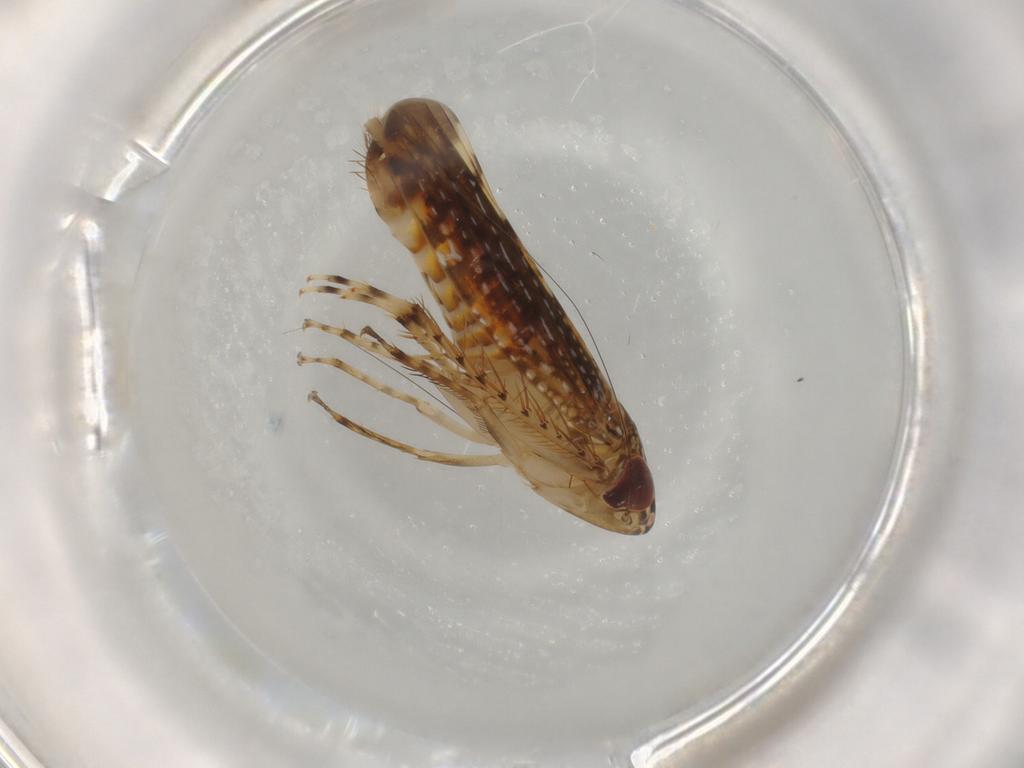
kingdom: Animalia
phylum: Arthropoda
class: Insecta
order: Hemiptera
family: Cicadellidae
